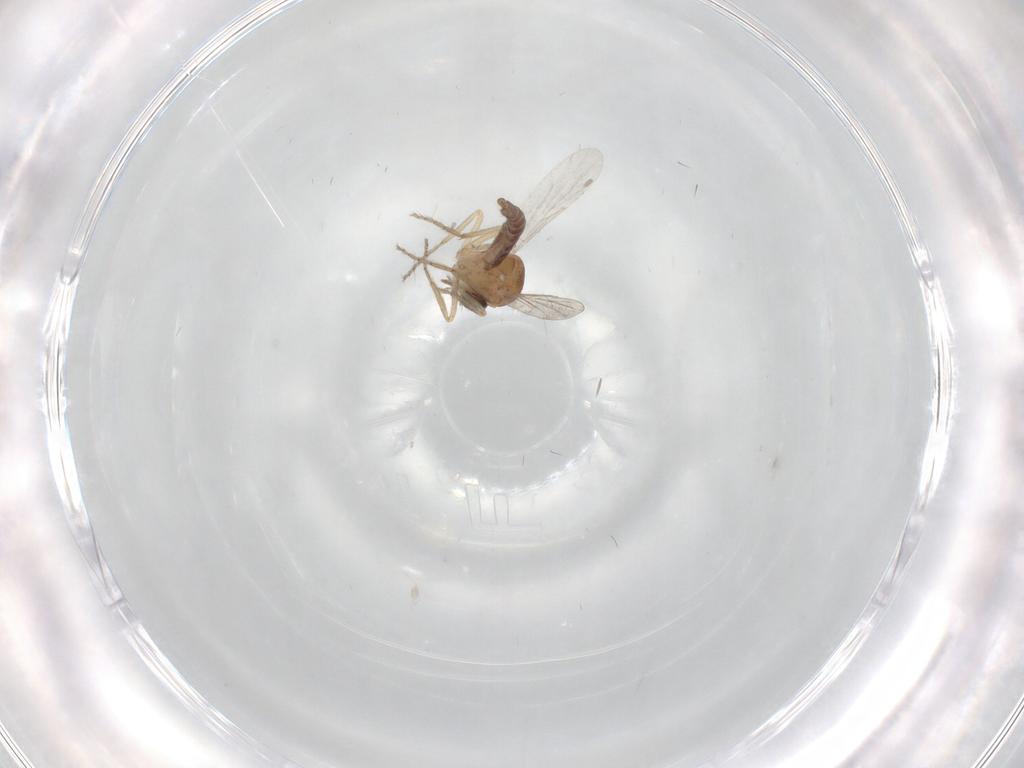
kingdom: Animalia
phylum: Arthropoda
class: Insecta
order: Diptera
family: Ceratopogonidae
